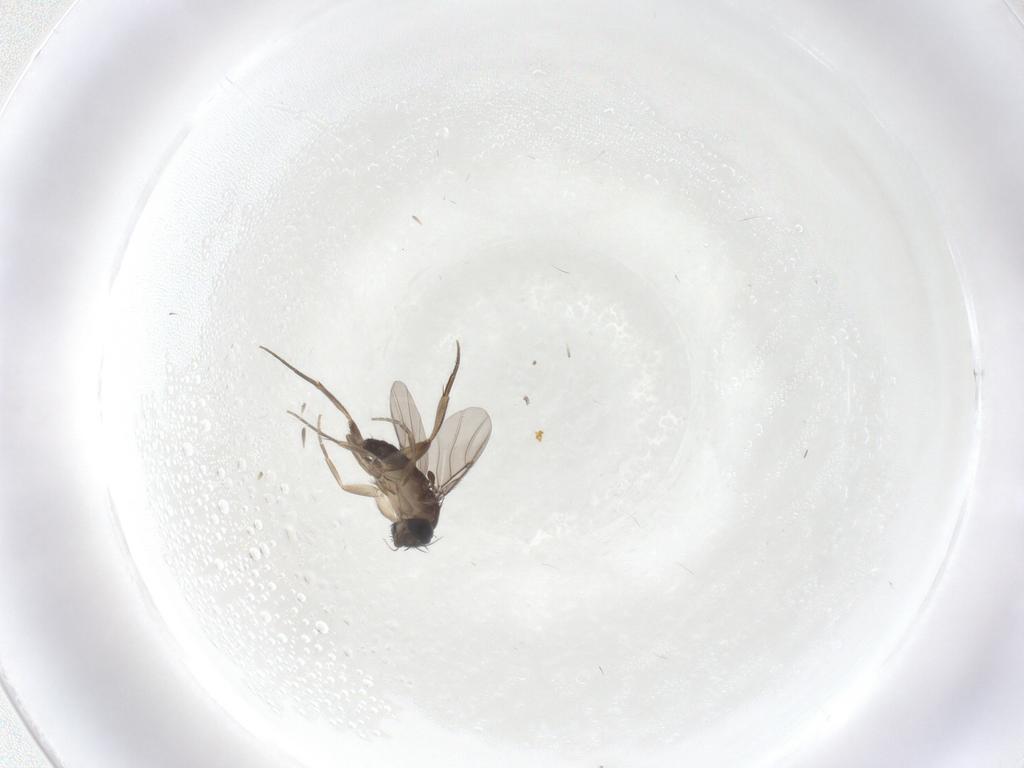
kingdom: Animalia
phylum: Arthropoda
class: Insecta
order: Diptera
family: Phoridae
